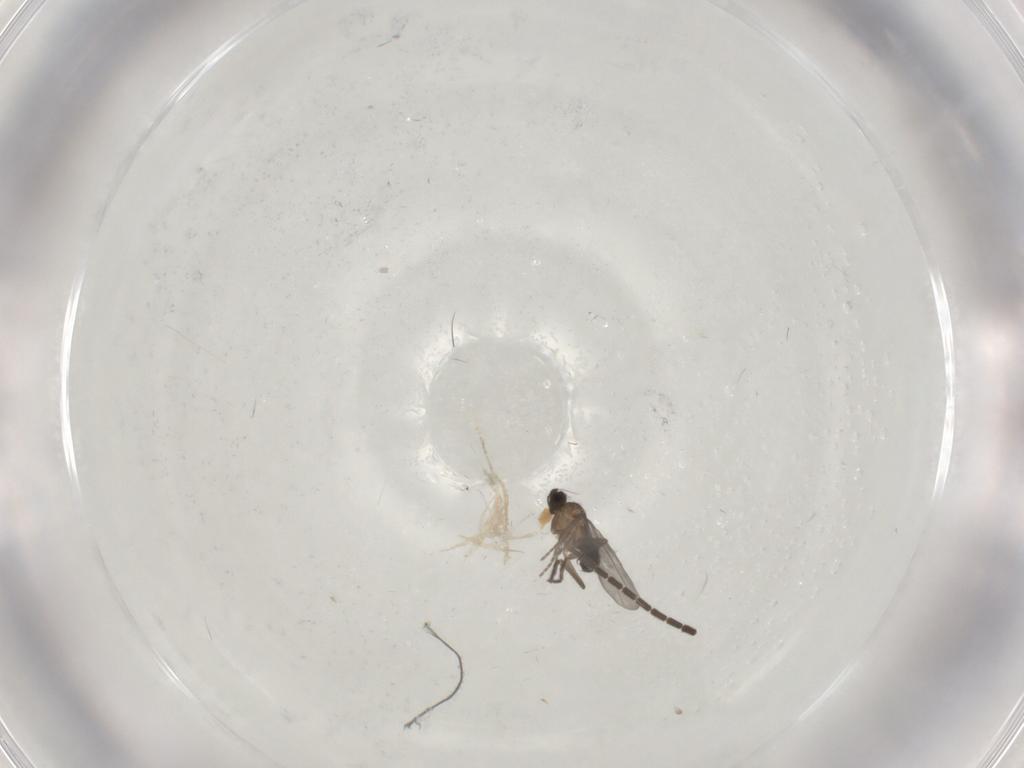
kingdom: Animalia
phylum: Arthropoda
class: Insecta
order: Diptera
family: Sciaridae
